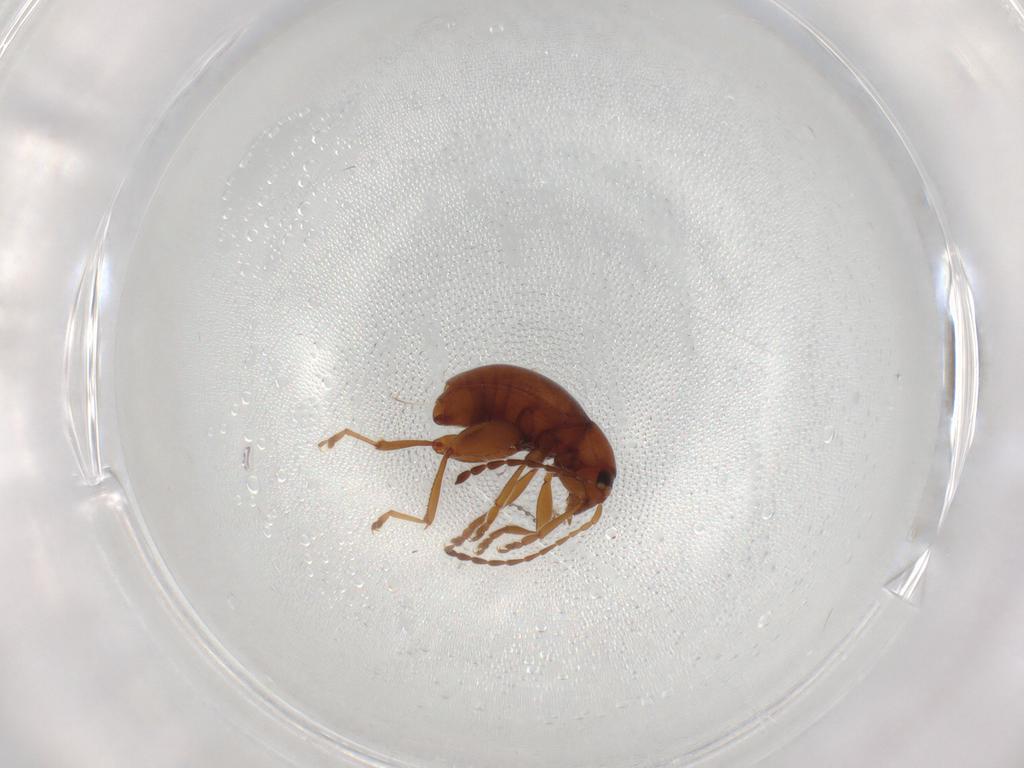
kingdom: Animalia
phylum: Arthropoda
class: Insecta
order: Coleoptera
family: Chrysomelidae
